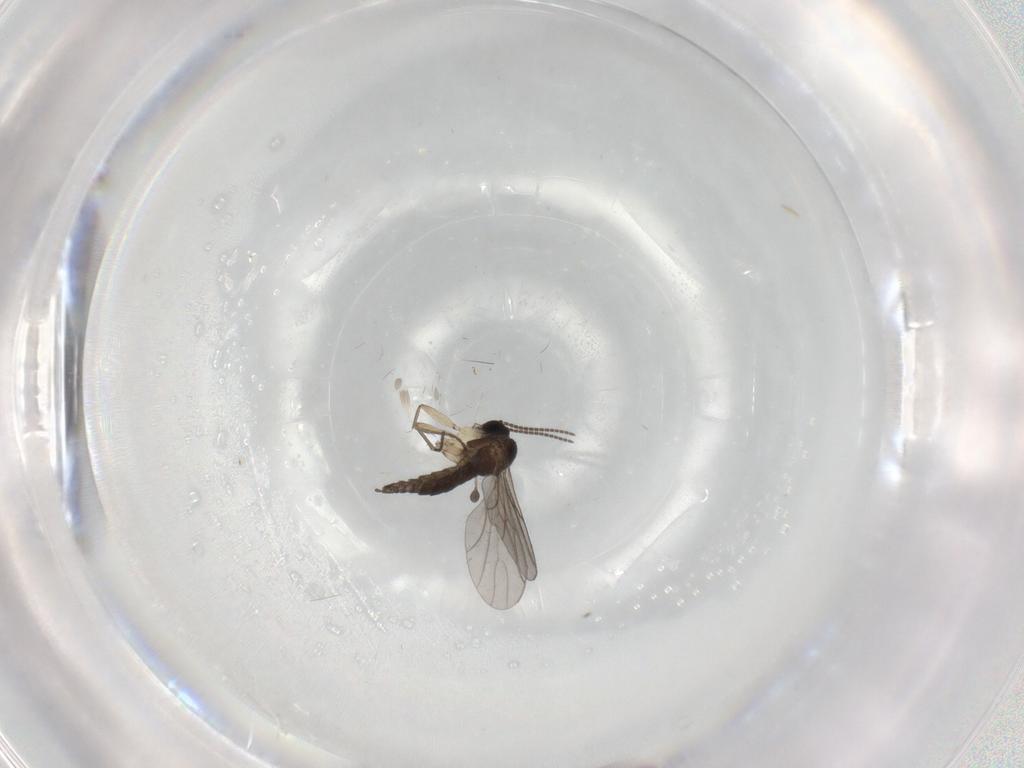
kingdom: Animalia
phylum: Arthropoda
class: Insecta
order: Diptera
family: Sciaridae
